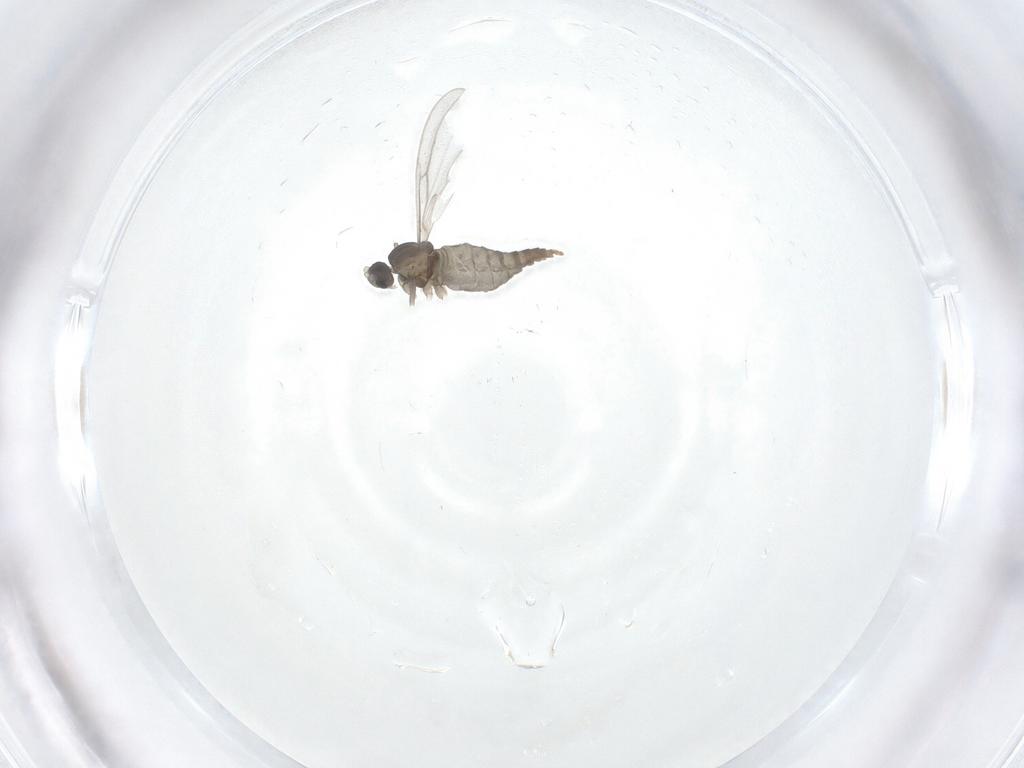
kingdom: Animalia
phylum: Arthropoda
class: Insecta
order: Diptera
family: Cecidomyiidae
